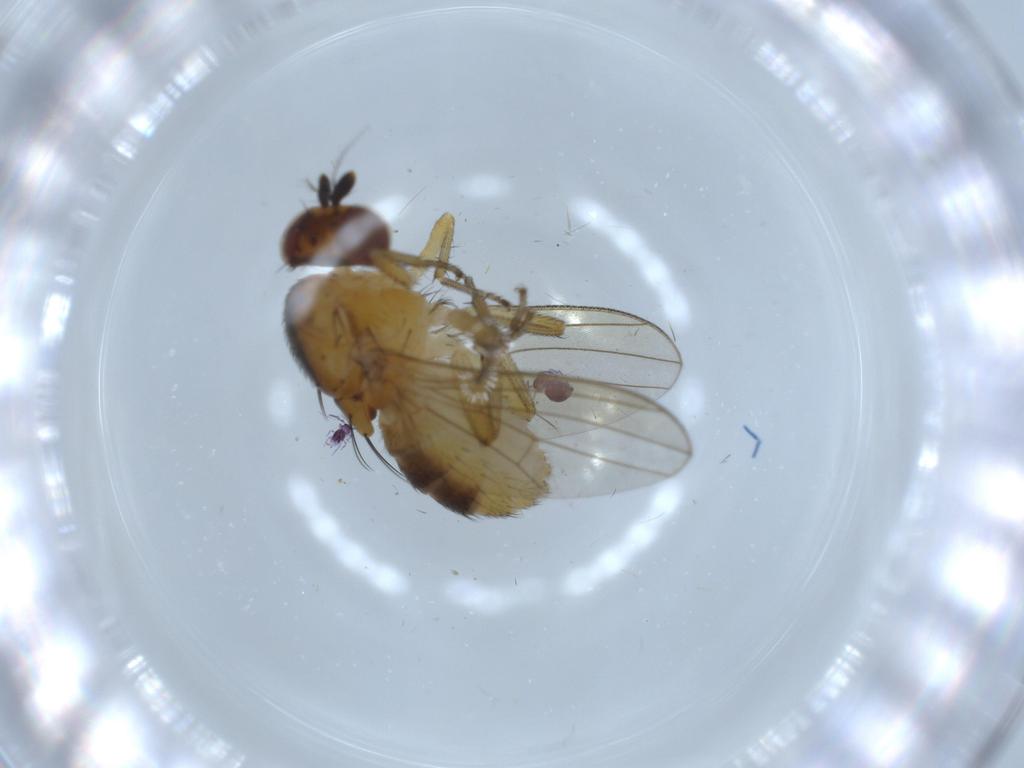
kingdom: Animalia
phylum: Arthropoda
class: Insecta
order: Diptera
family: Lauxaniidae
